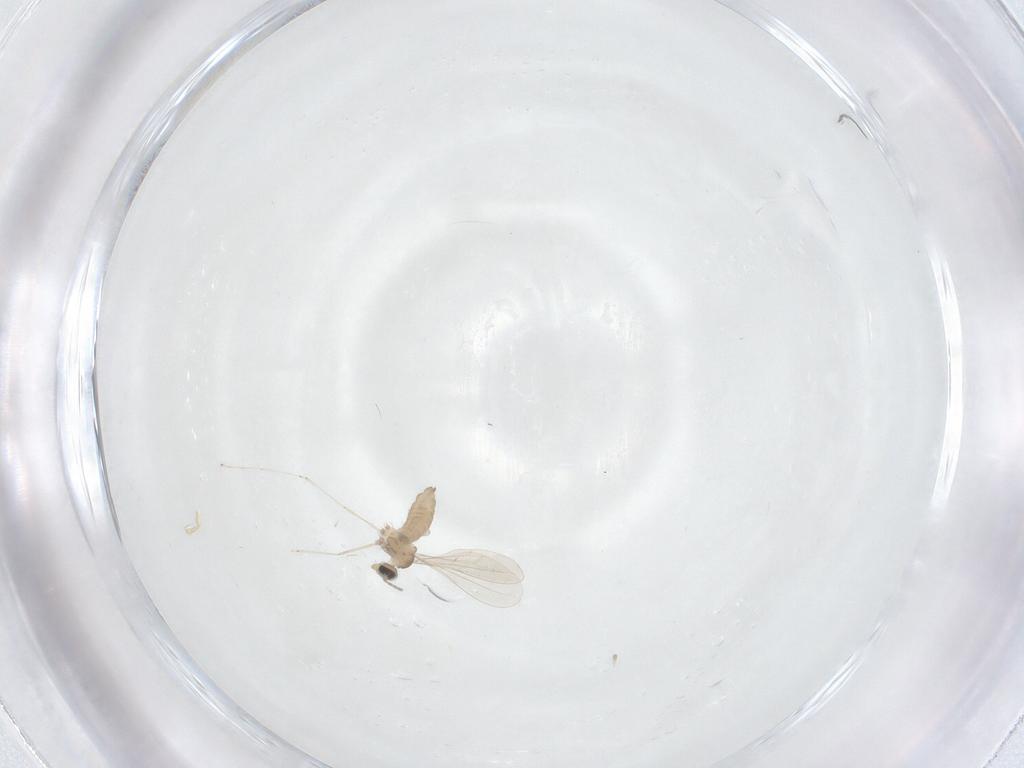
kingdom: Animalia
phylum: Arthropoda
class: Insecta
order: Diptera
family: Cecidomyiidae
